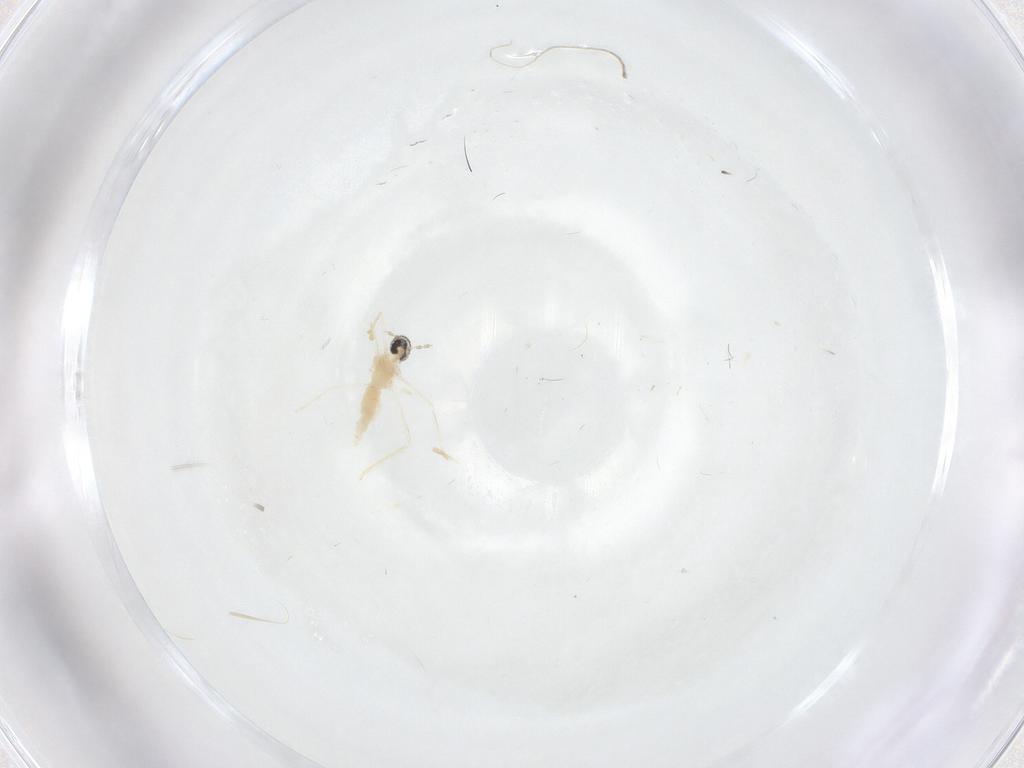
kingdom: Animalia
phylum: Arthropoda
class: Insecta
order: Diptera
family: Cecidomyiidae
